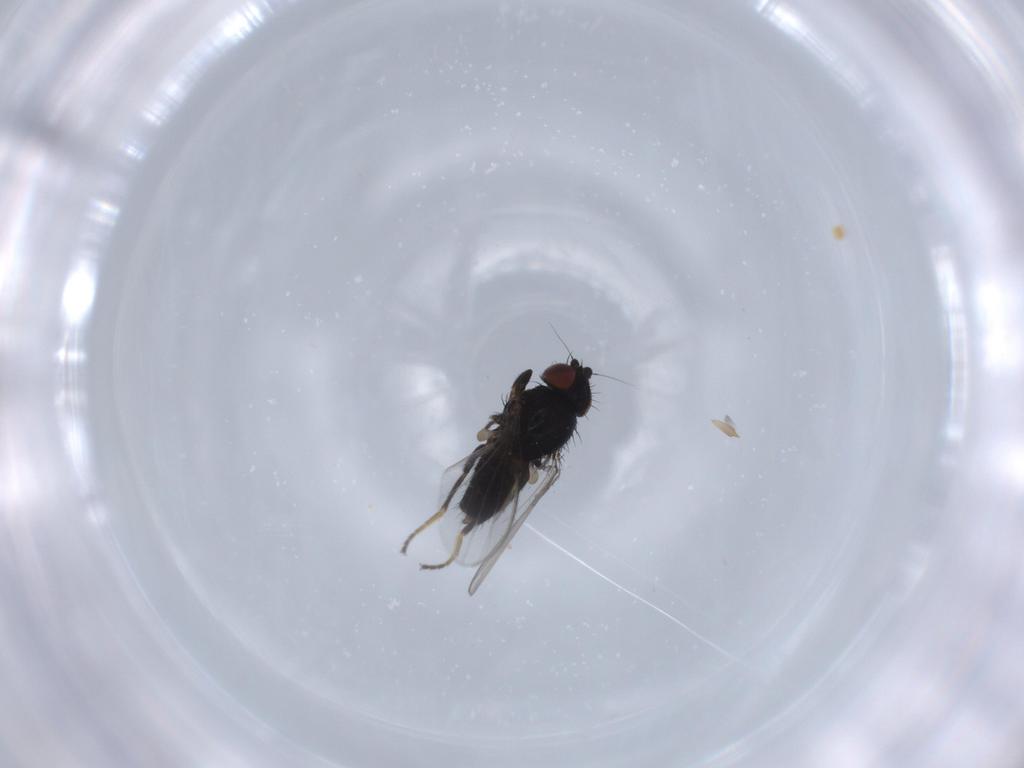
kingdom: Animalia
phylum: Arthropoda
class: Insecta
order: Diptera
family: Milichiidae
